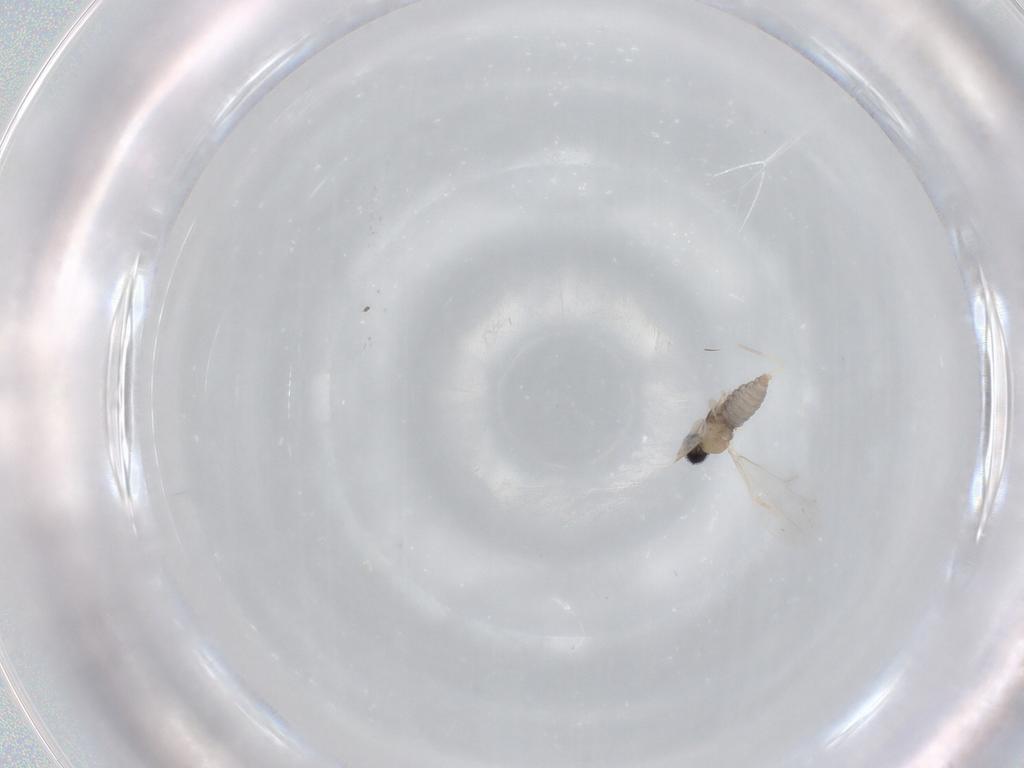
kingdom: Animalia
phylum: Arthropoda
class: Insecta
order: Diptera
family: Cecidomyiidae
